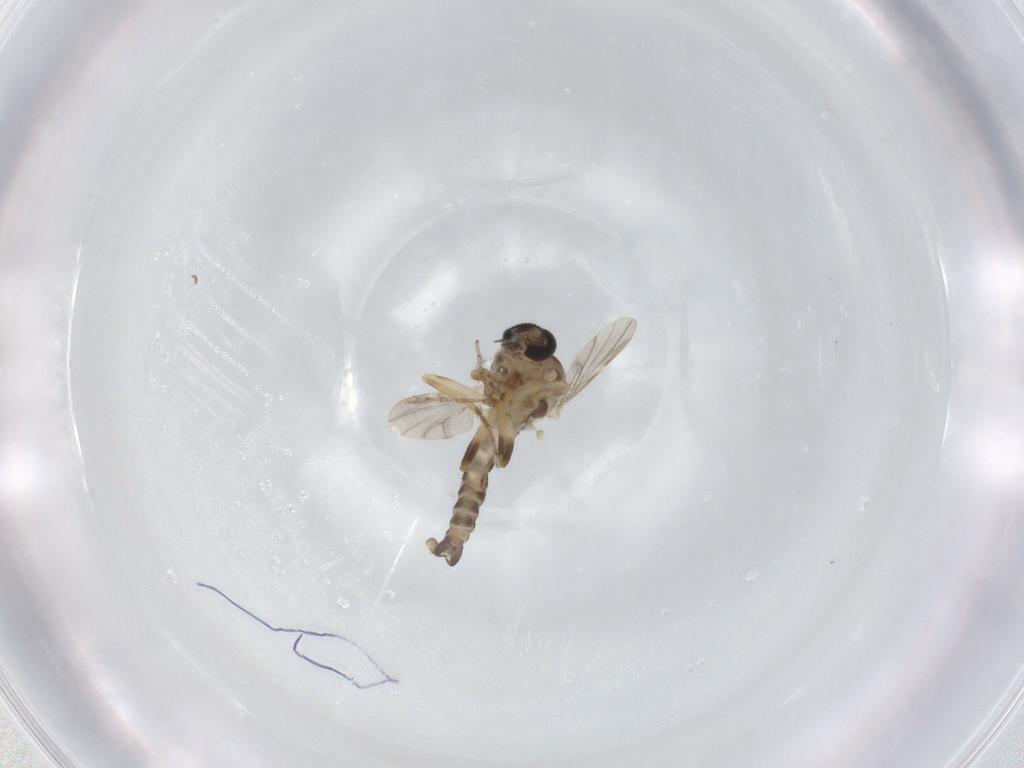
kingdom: Animalia
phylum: Arthropoda
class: Insecta
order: Diptera
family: Ceratopogonidae
